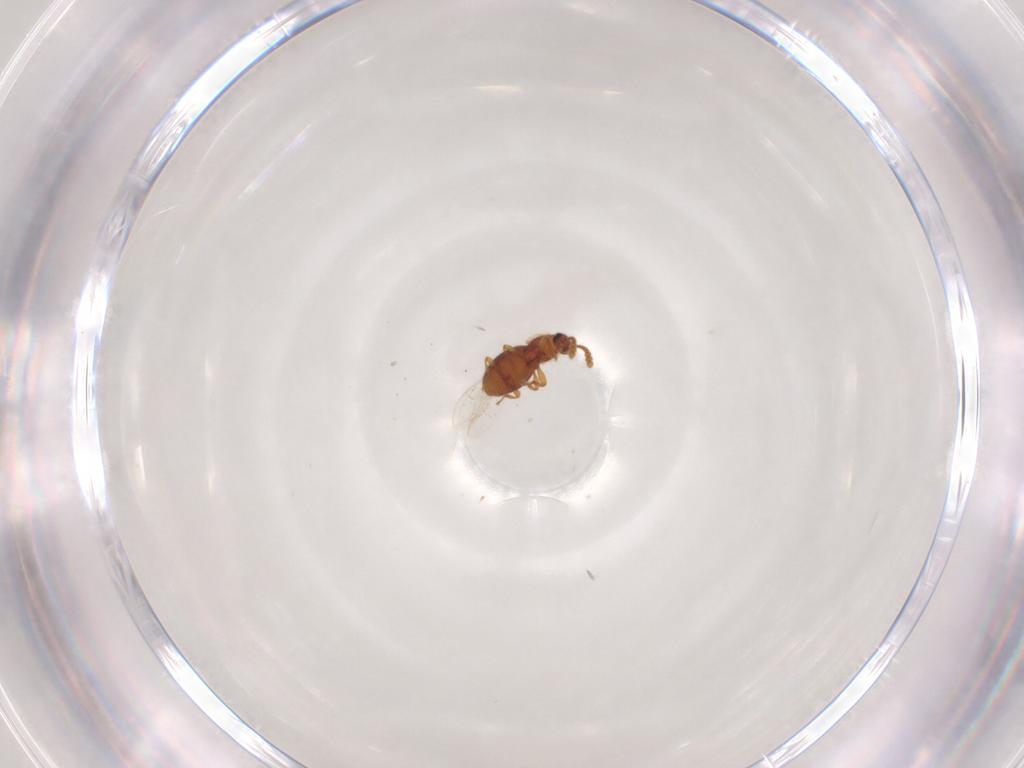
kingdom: Animalia
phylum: Arthropoda
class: Insecta
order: Coleoptera
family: Staphylinidae
